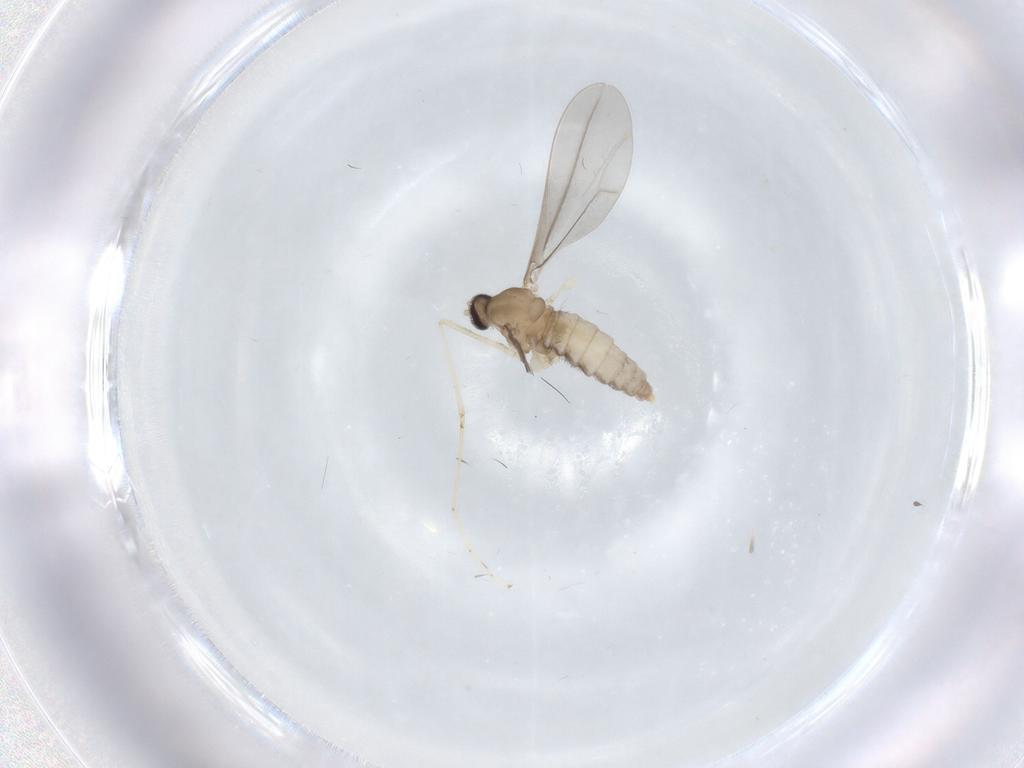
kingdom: Animalia
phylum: Arthropoda
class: Insecta
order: Diptera
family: Cecidomyiidae
